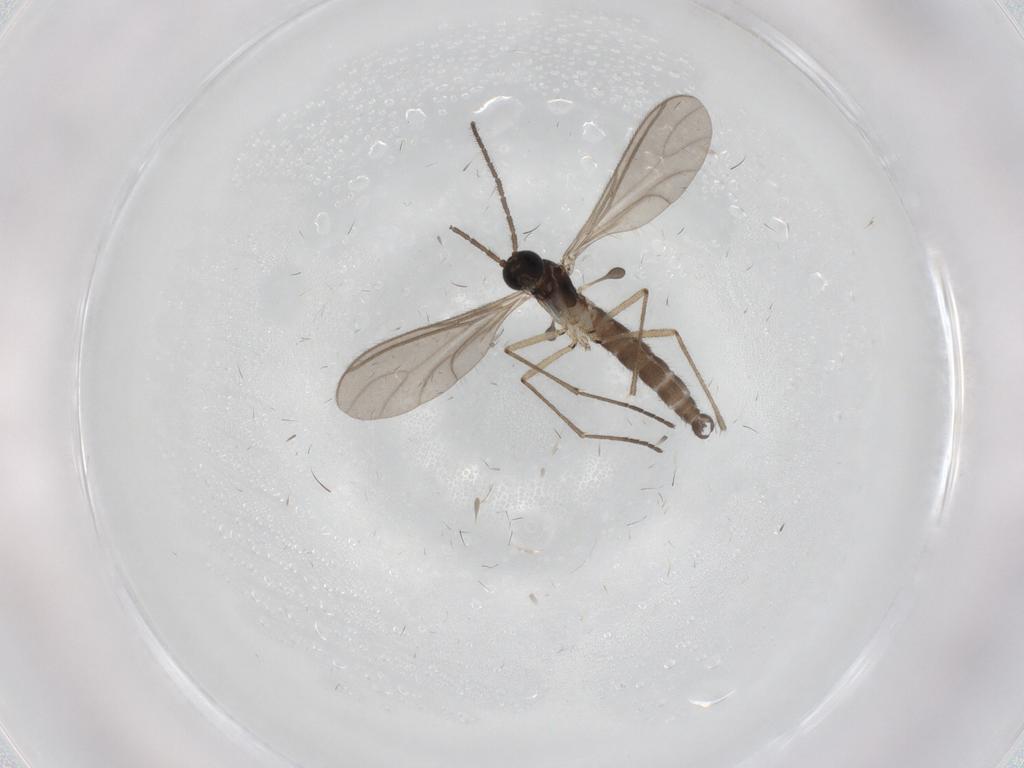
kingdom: Animalia
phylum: Arthropoda
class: Insecta
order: Diptera
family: Sciaridae
